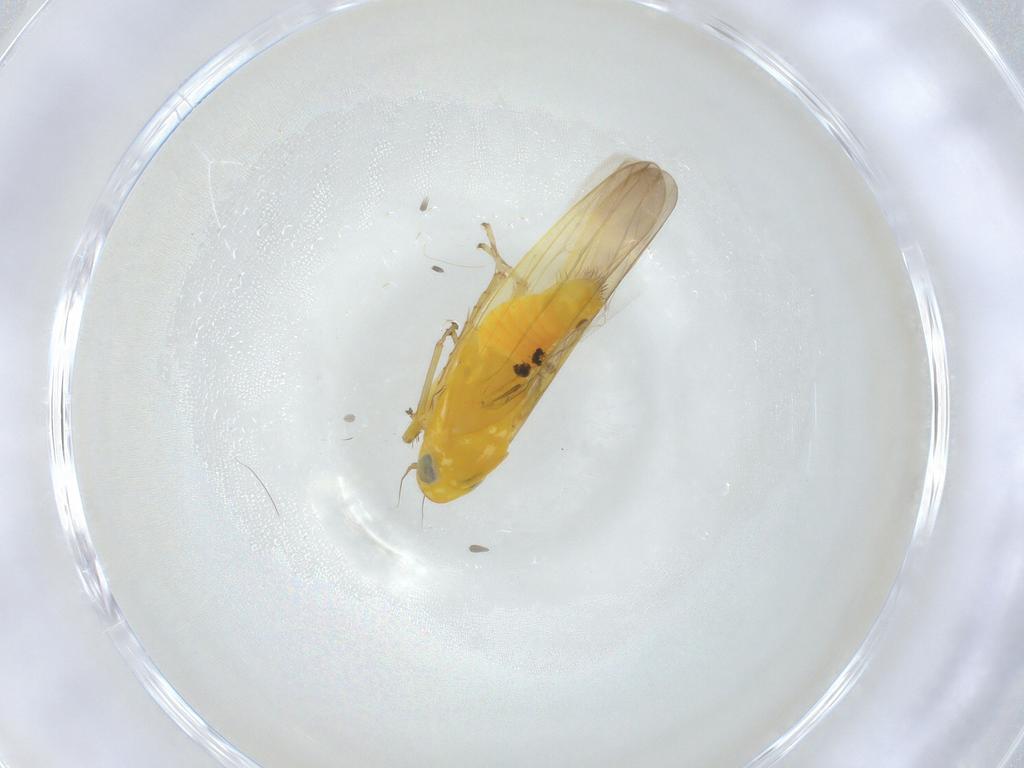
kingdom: Animalia
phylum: Arthropoda
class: Insecta
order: Hemiptera
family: Cicadellidae
